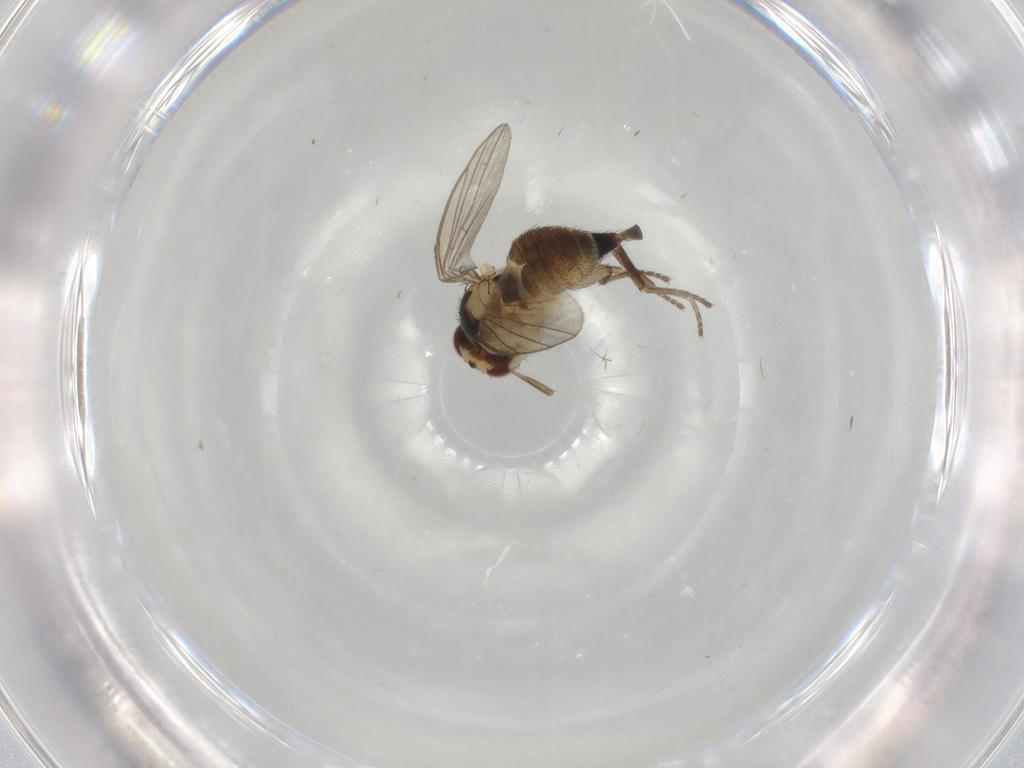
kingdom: Animalia
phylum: Arthropoda
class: Insecta
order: Diptera
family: Agromyzidae
